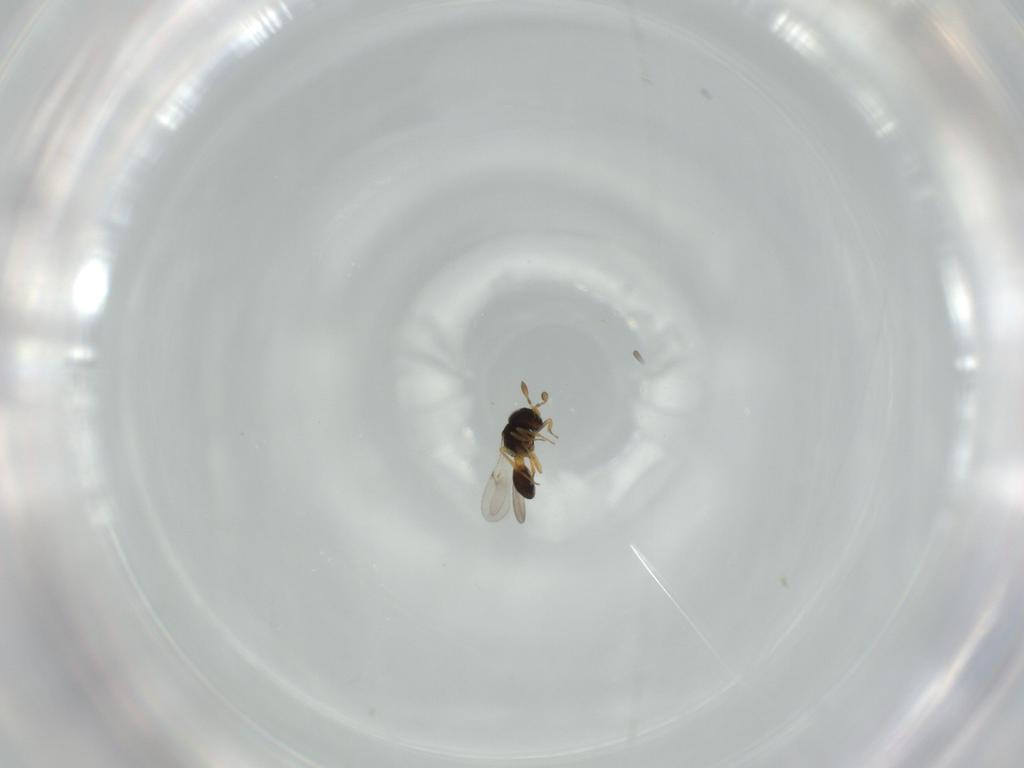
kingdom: Animalia
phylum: Arthropoda
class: Insecta
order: Hymenoptera
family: Scelionidae
